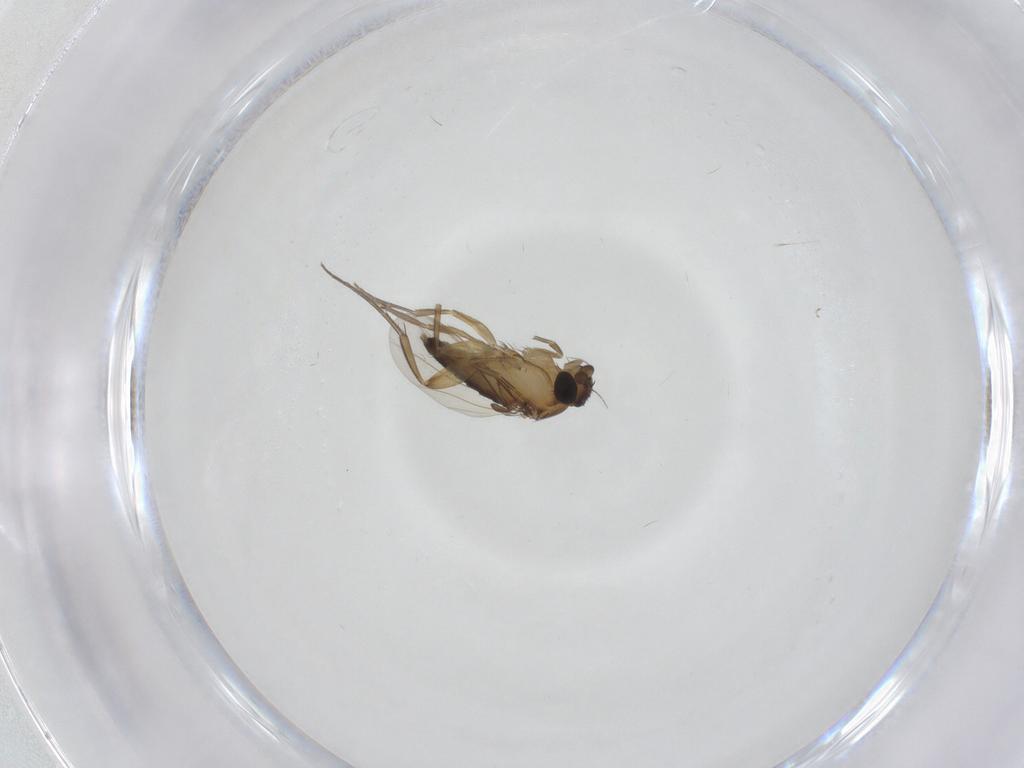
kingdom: Animalia
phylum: Arthropoda
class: Insecta
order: Diptera
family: Phoridae
